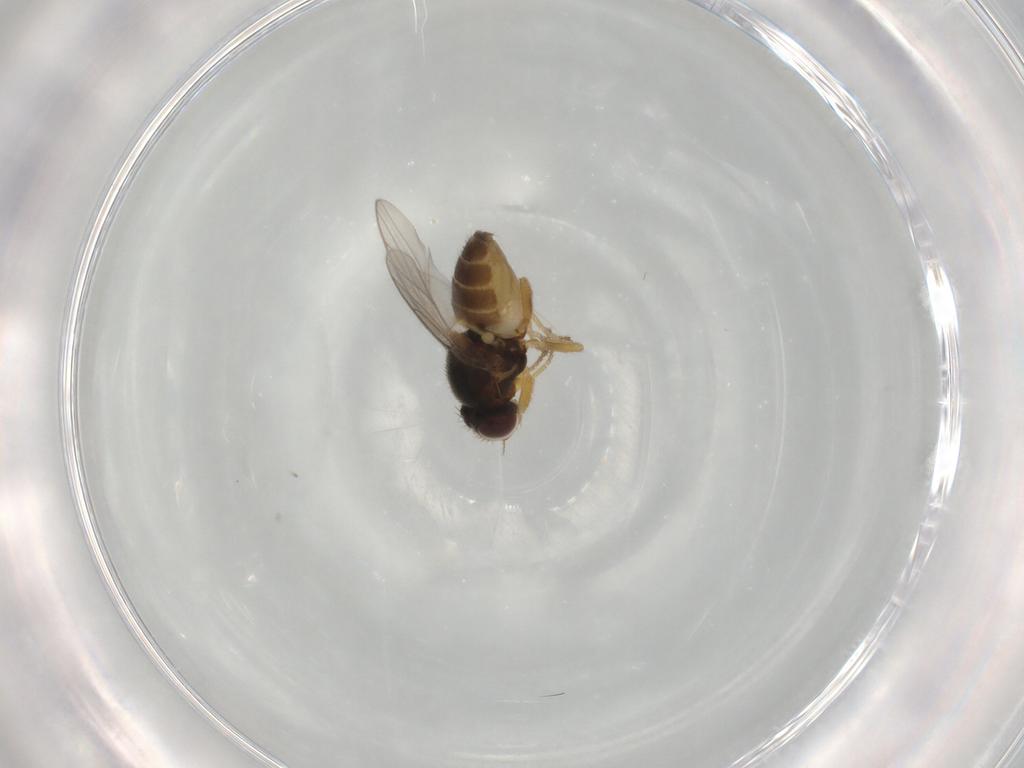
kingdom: Animalia
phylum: Arthropoda
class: Insecta
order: Diptera
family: Chloropidae
